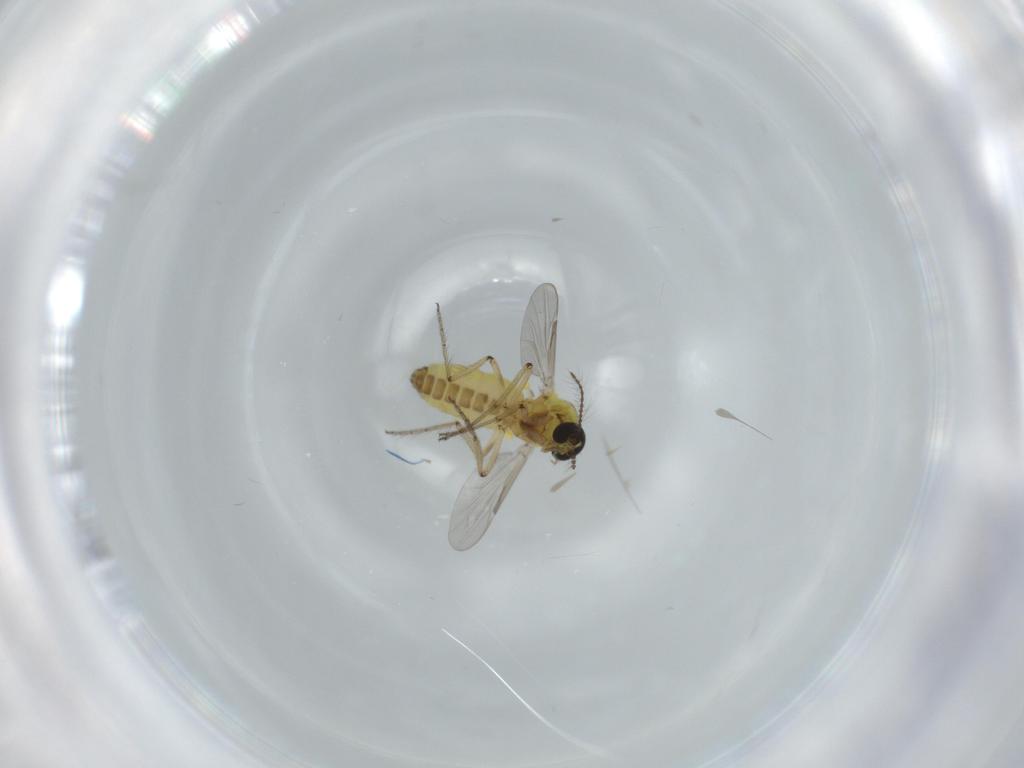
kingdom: Animalia
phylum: Arthropoda
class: Insecta
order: Diptera
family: Ceratopogonidae
